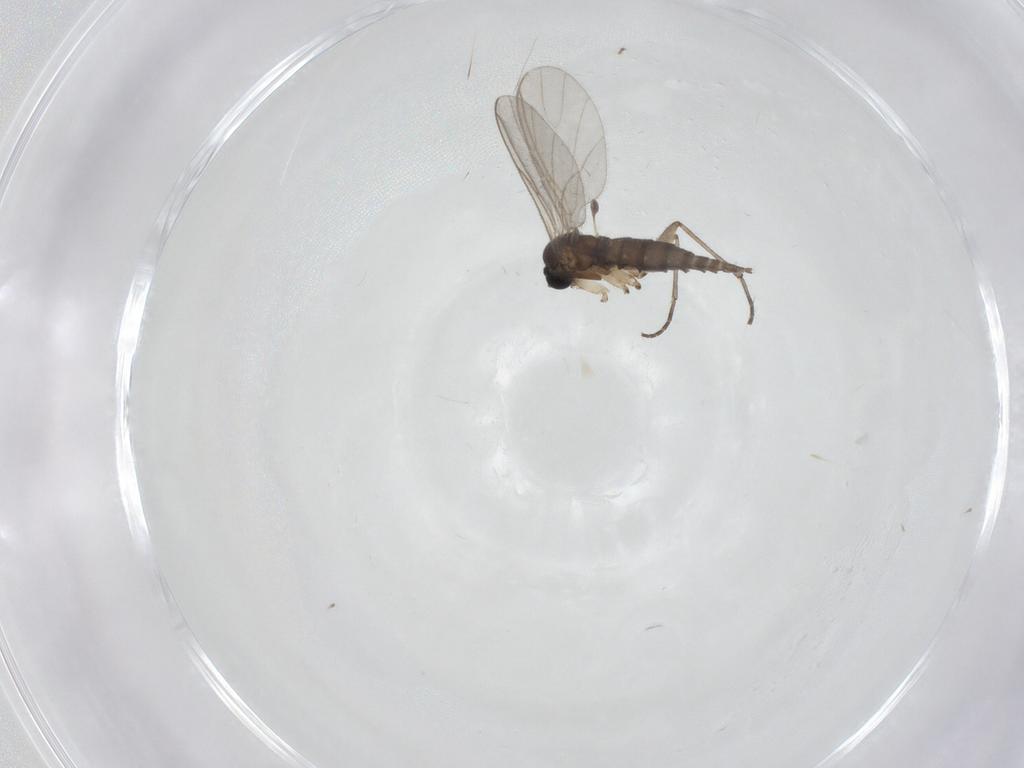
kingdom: Animalia
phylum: Arthropoda
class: Insecta
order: Diptera
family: Sciaridae
